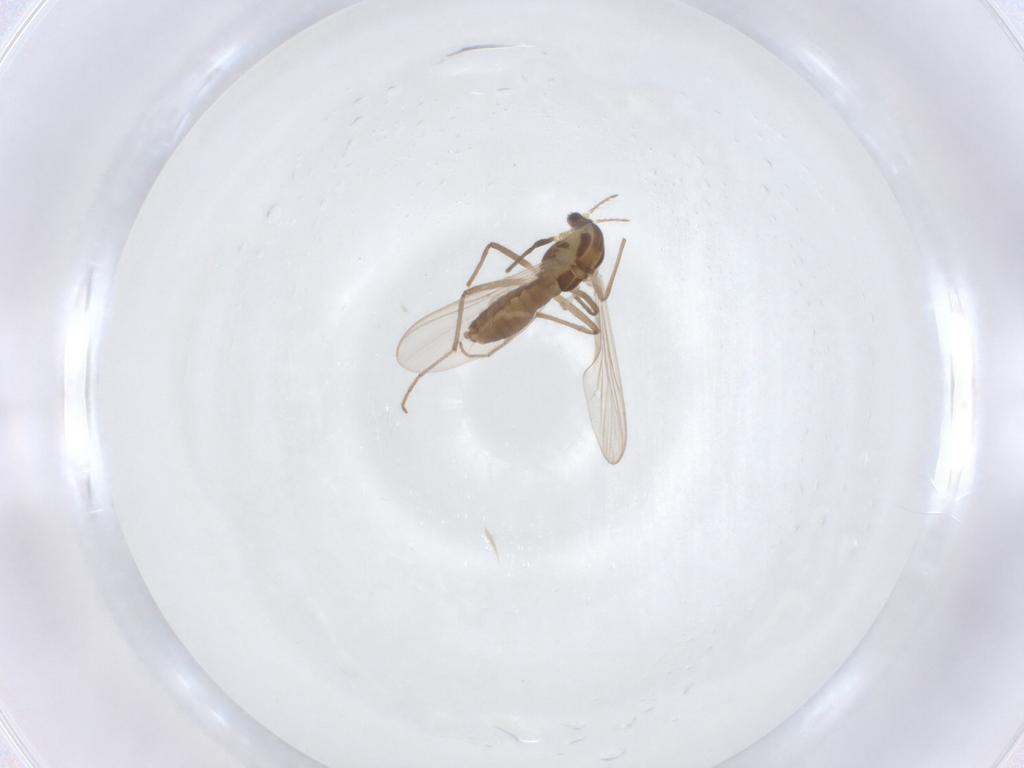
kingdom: Animalia
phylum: Arthropoda
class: Insecta
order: Diptera
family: Chironomidae
